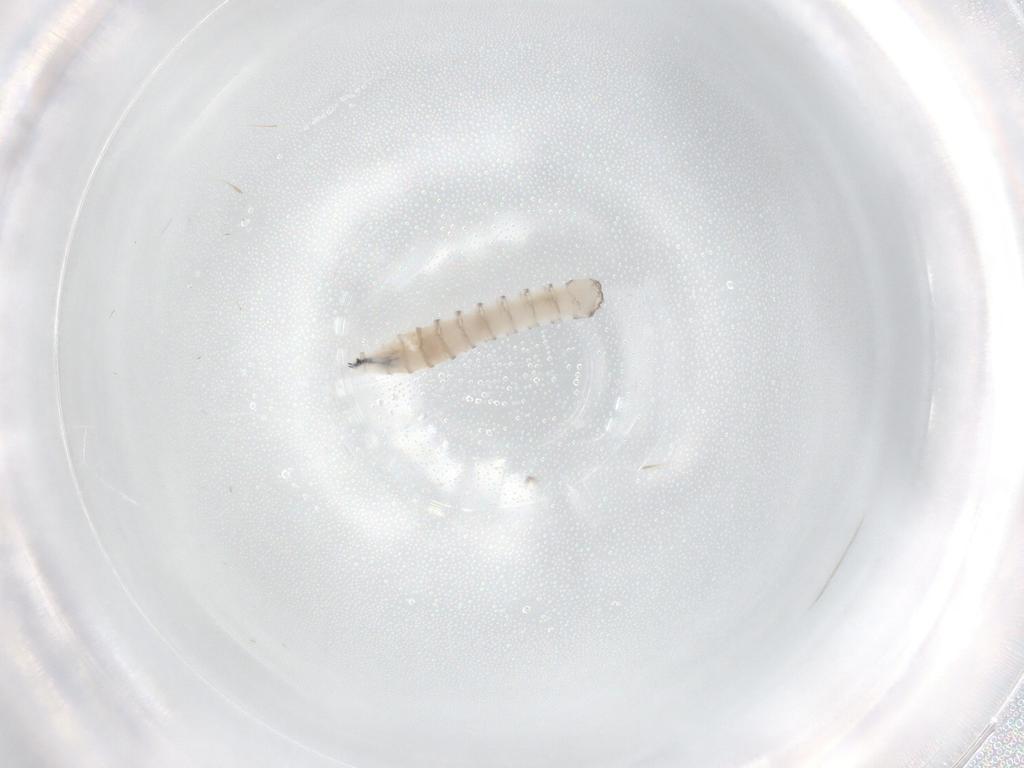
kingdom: Animalia
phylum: Arthropoda
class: Insecta
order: Diptera
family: Sarcophagidae
